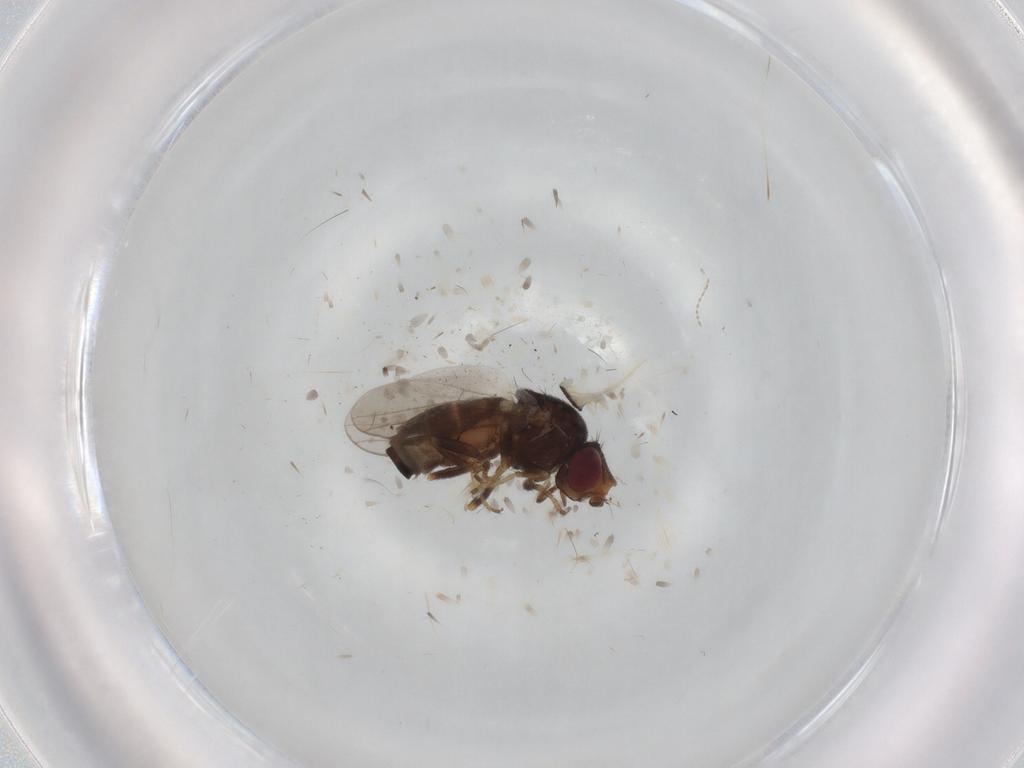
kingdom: Animalia
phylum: Arthropoda
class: Insecta
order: Diptera
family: Chloropidae
